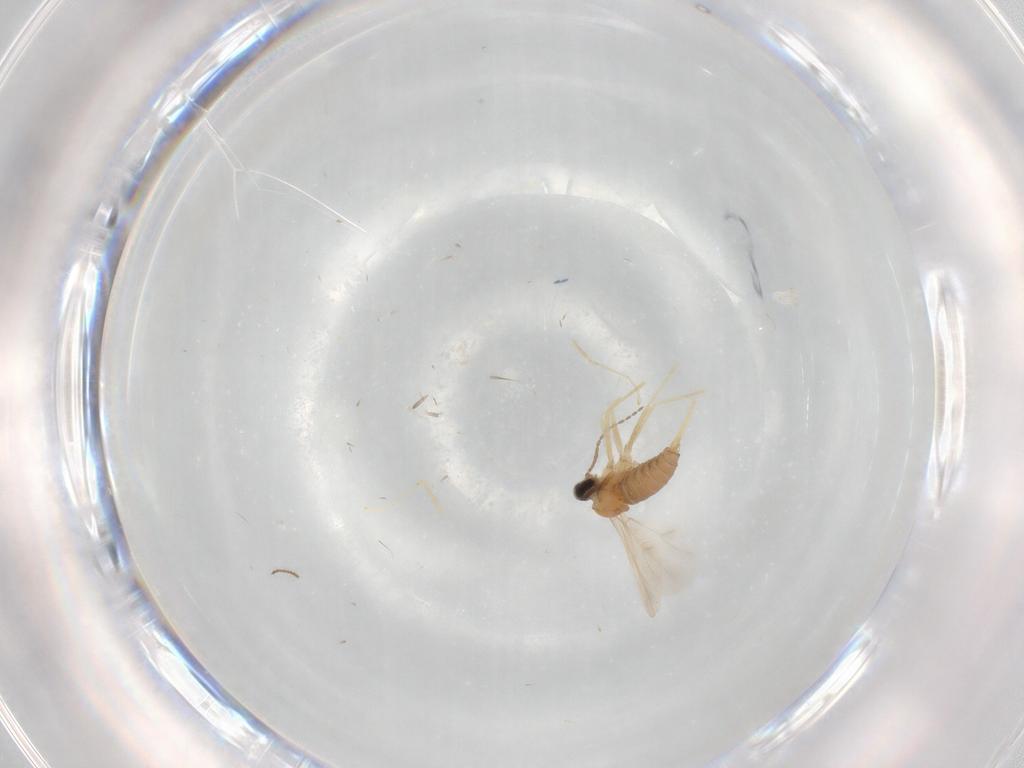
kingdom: Animalia
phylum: Arthropoda
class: Insecta
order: Diptera
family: Cecidomyiidae
